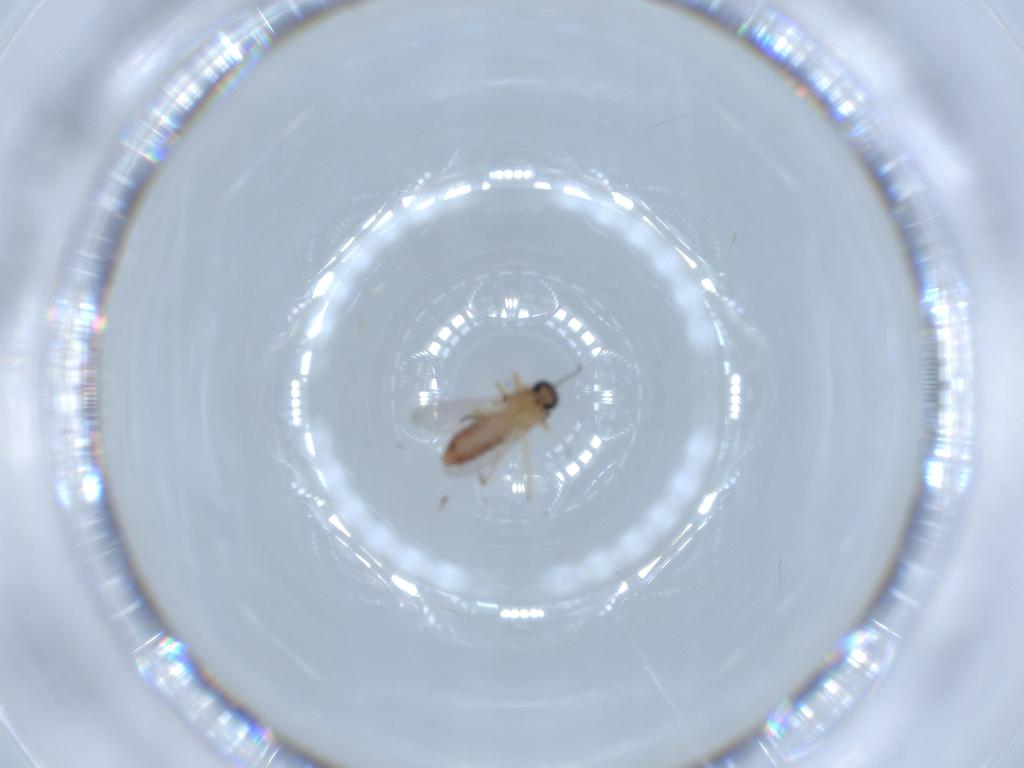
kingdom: Animalia
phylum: Arthropoda
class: Insecta
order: Diptera
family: Ceratopogonidae
